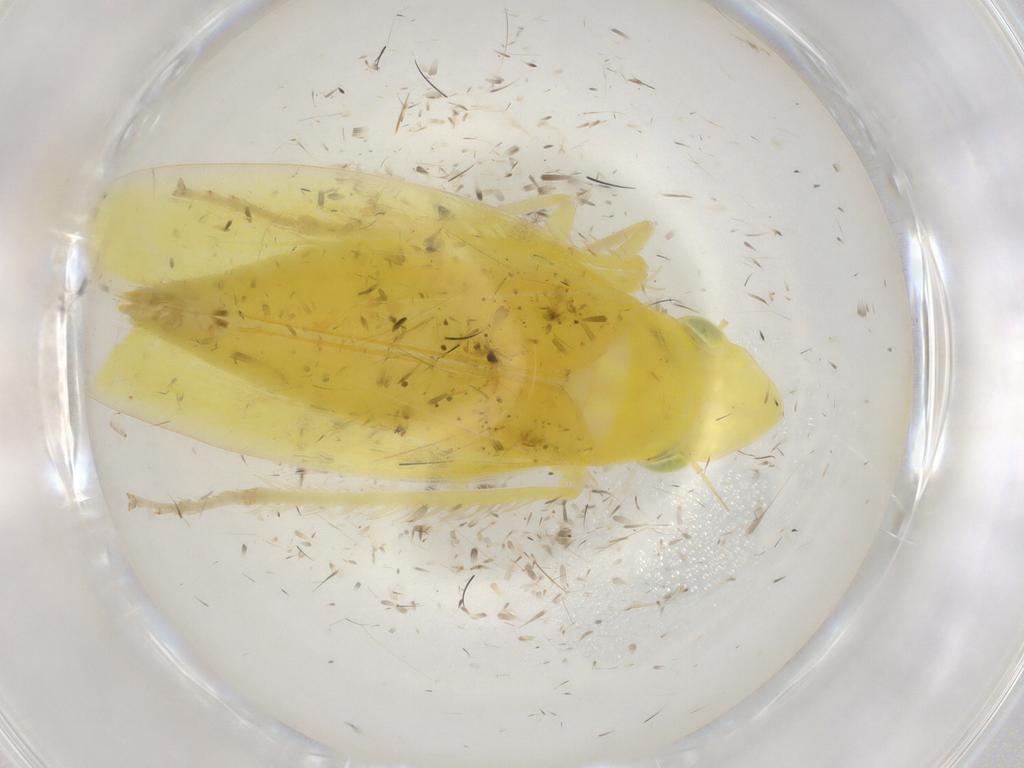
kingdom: Animalia
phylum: Arthropoda
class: Insecta
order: Hemiptera
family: Cicadellidae
